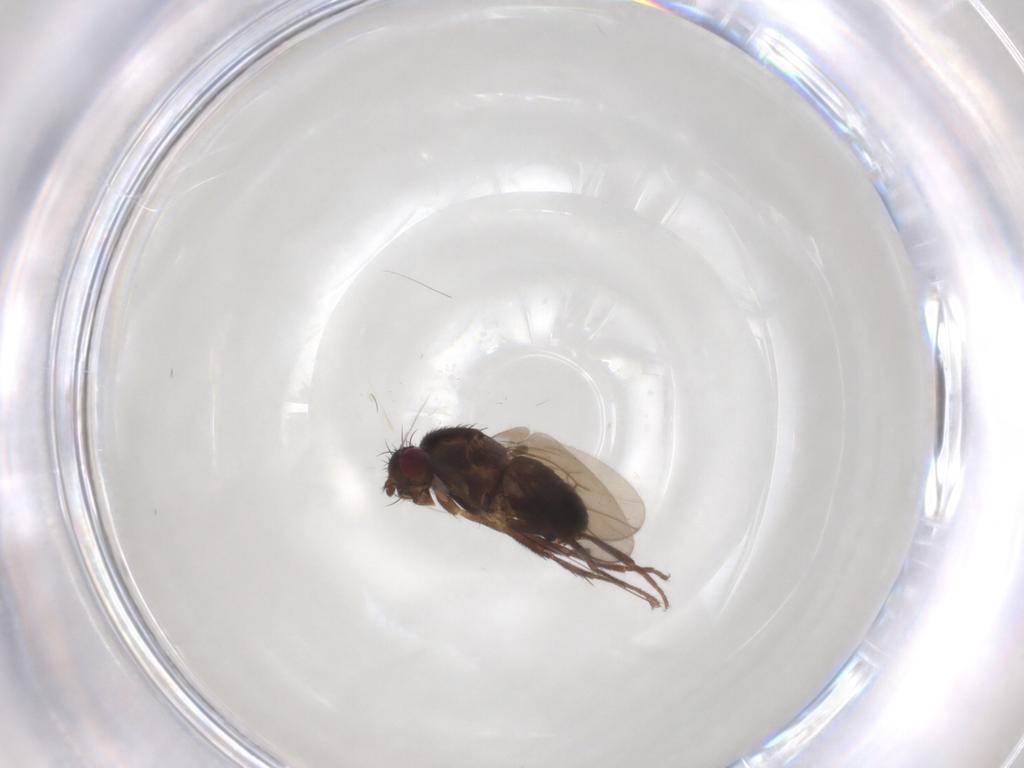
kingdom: Animalia
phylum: Arthropoda
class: Insecta
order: Diptera
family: Sphaeroceridae
